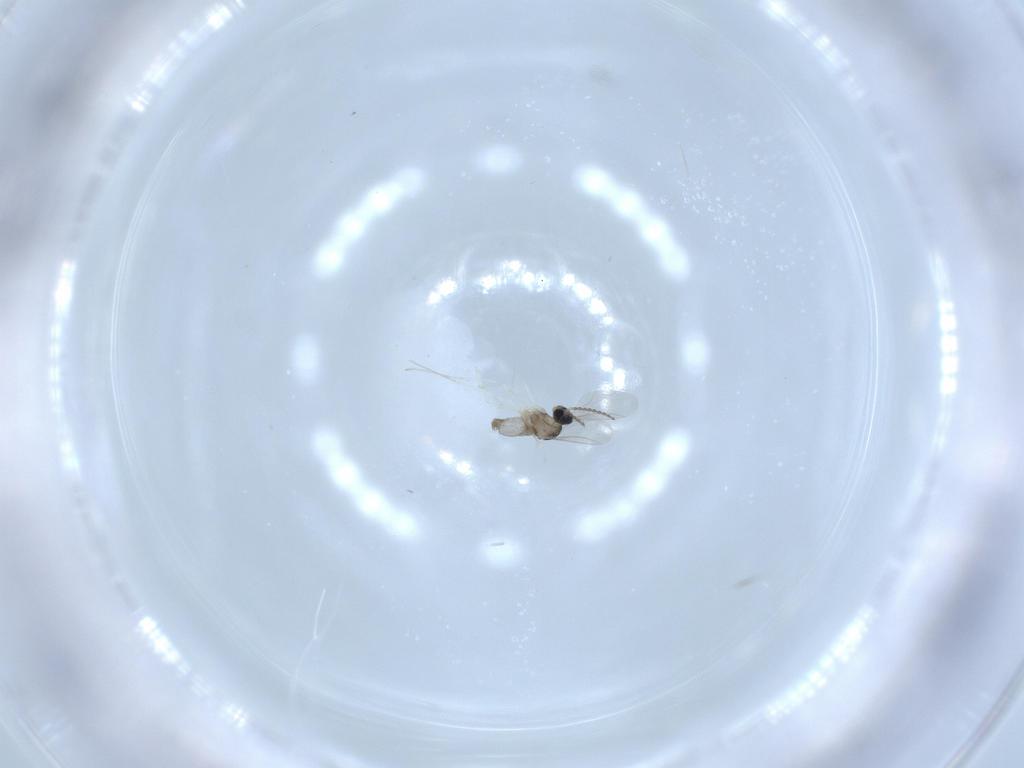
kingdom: Animalia
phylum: Arthropoda
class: Insecta
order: Diptera
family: Cecidomyiidae
